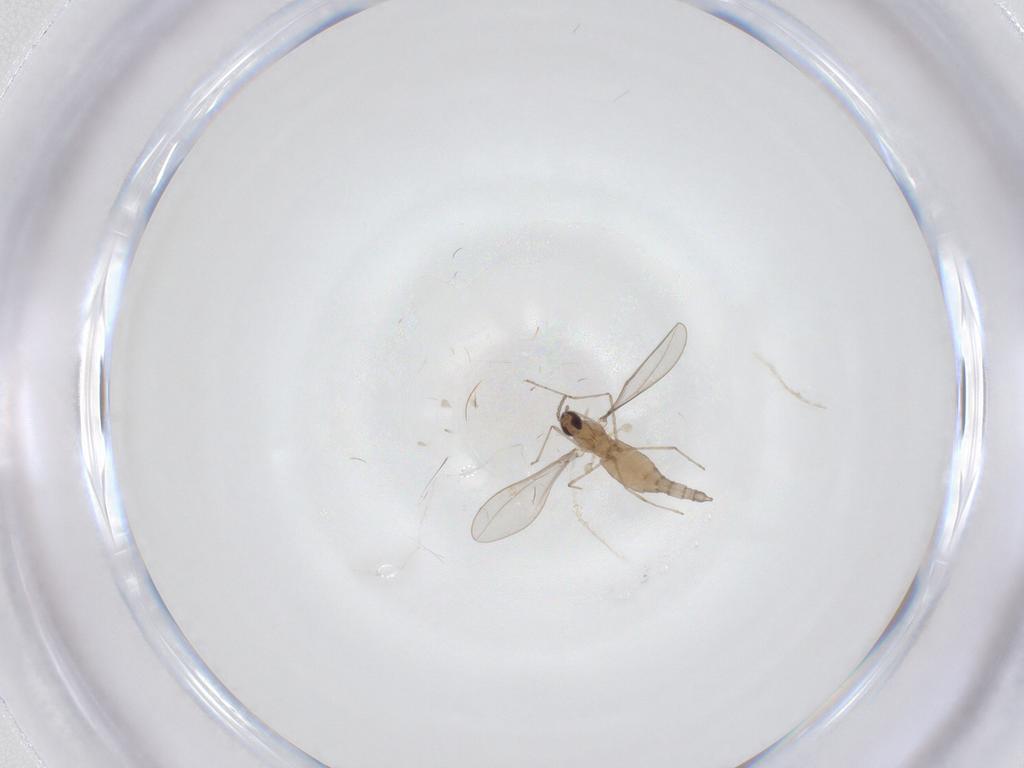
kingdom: Animalia
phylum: Arthropoda
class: Insecta
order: Diptera
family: Cecidomyiidae
